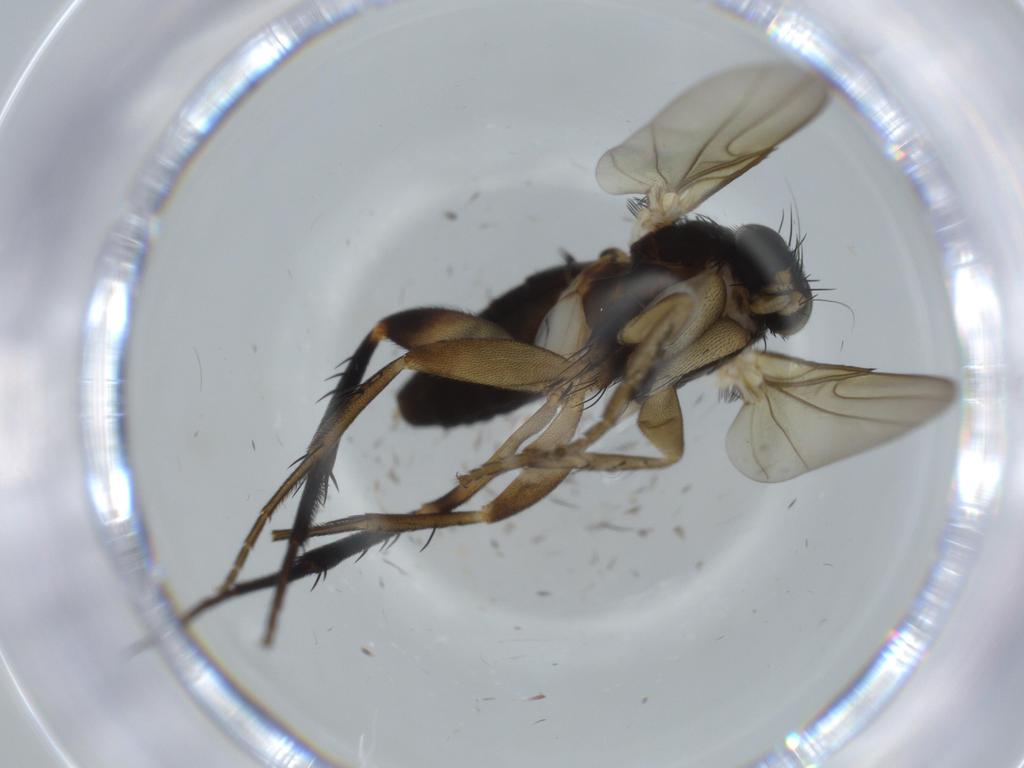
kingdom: Animalia
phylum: Arthropoda
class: Insecta
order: Diptera
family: Phoridae
